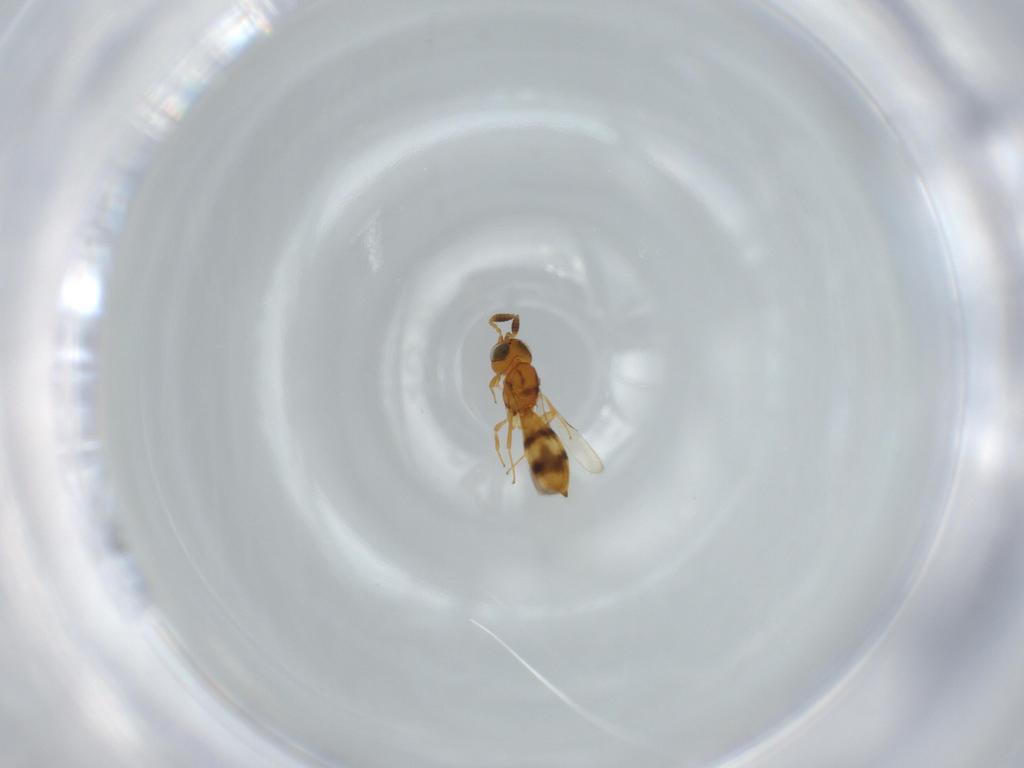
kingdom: Animalia
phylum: Arthropoda
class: Insecta
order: Hymenoptera
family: Scelionidae
